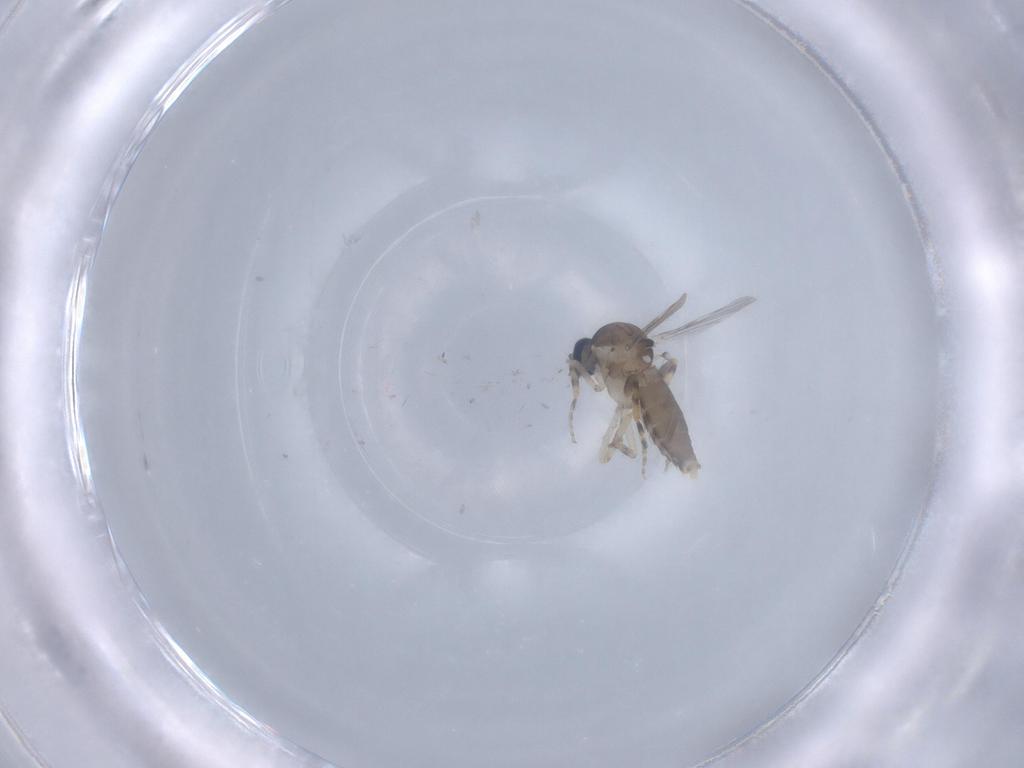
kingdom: Animalia
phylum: Arthropoda
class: Insecta
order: Diptera
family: Ceratopogonidae
